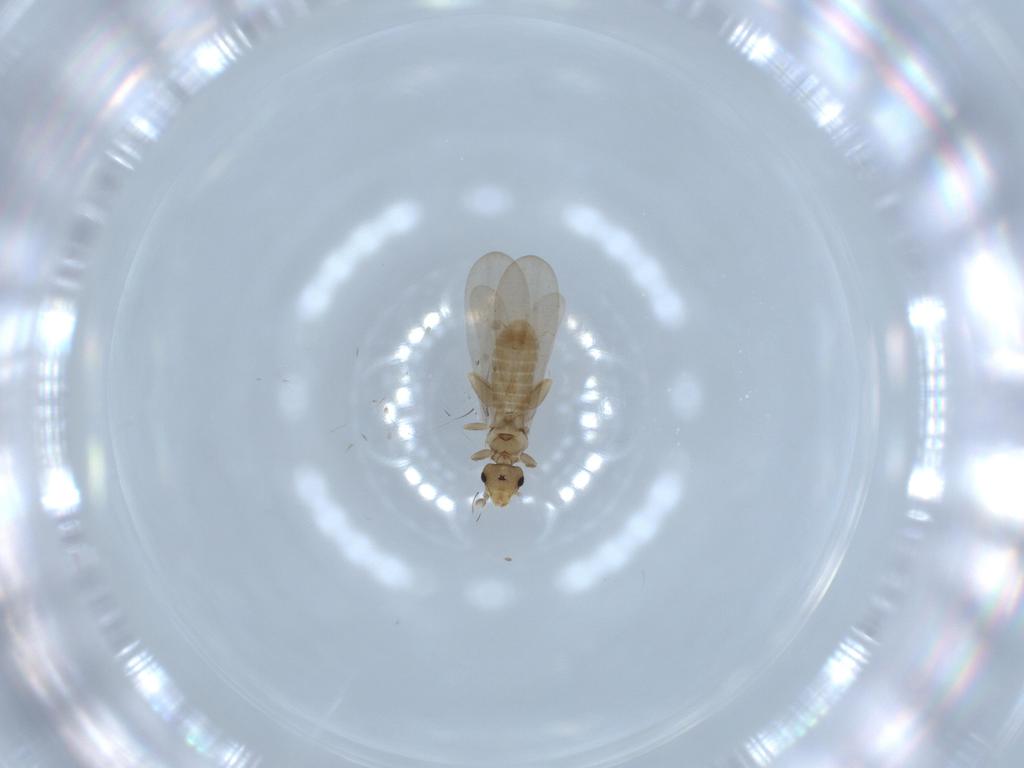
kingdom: Animalia
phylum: Arthropoda
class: Insecta
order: Psocodea
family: Liposcelididae
